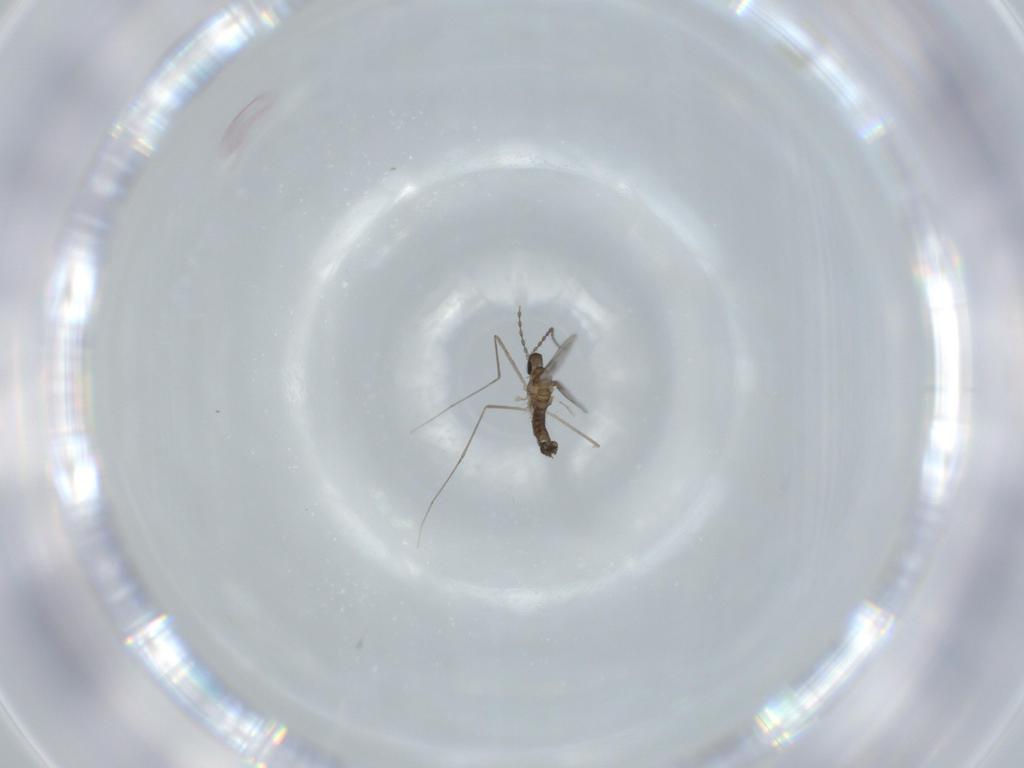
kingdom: Animalia
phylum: Arthropoda
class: Insecta
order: Diptera
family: Cecidomyiidae
